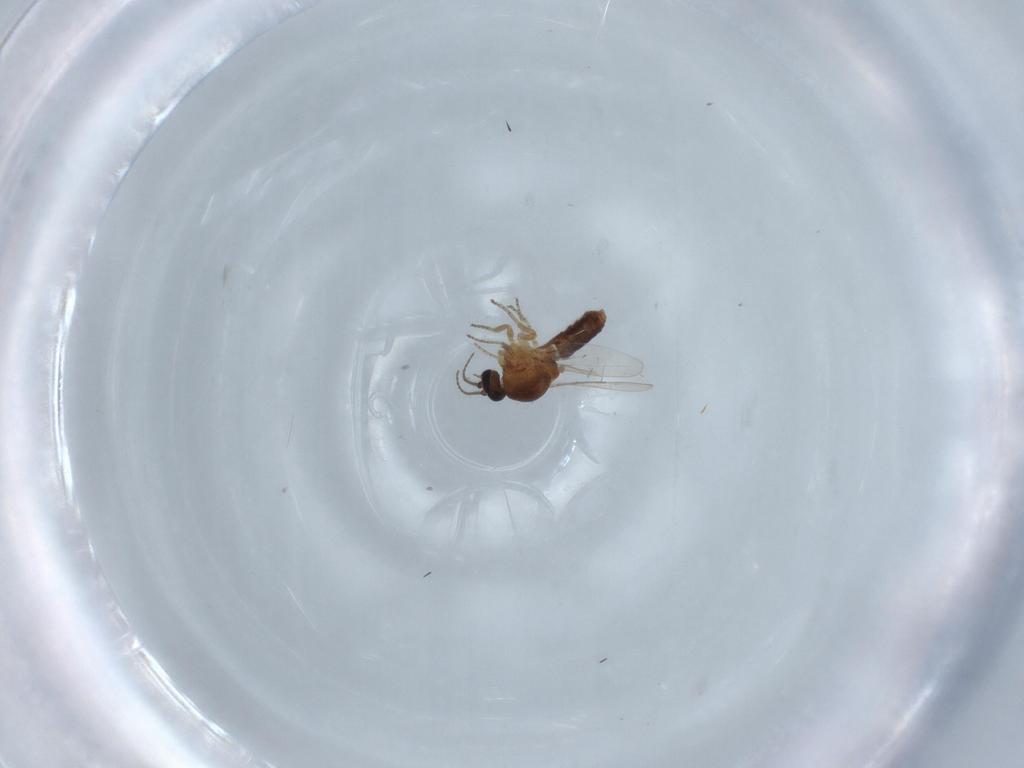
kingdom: Animalia
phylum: Arthropoda
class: Insecta
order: Diptera
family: Ceratopogonidae
